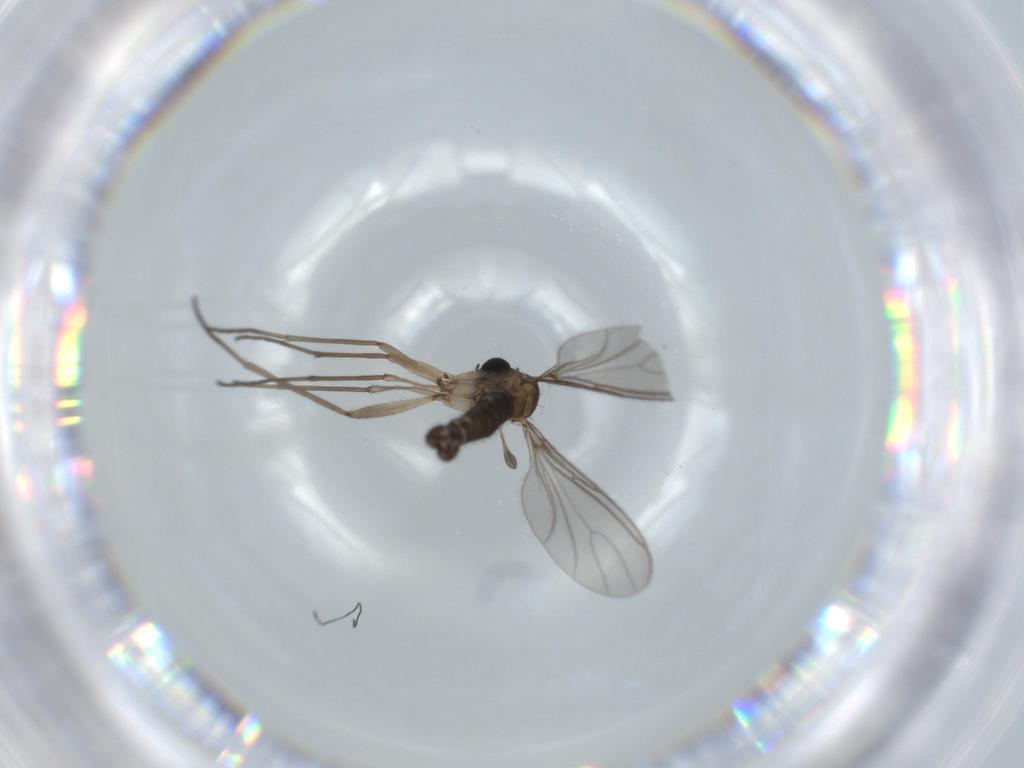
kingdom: Animalia
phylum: Arthropoda
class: Insecta
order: Diptera
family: Sciaridae
